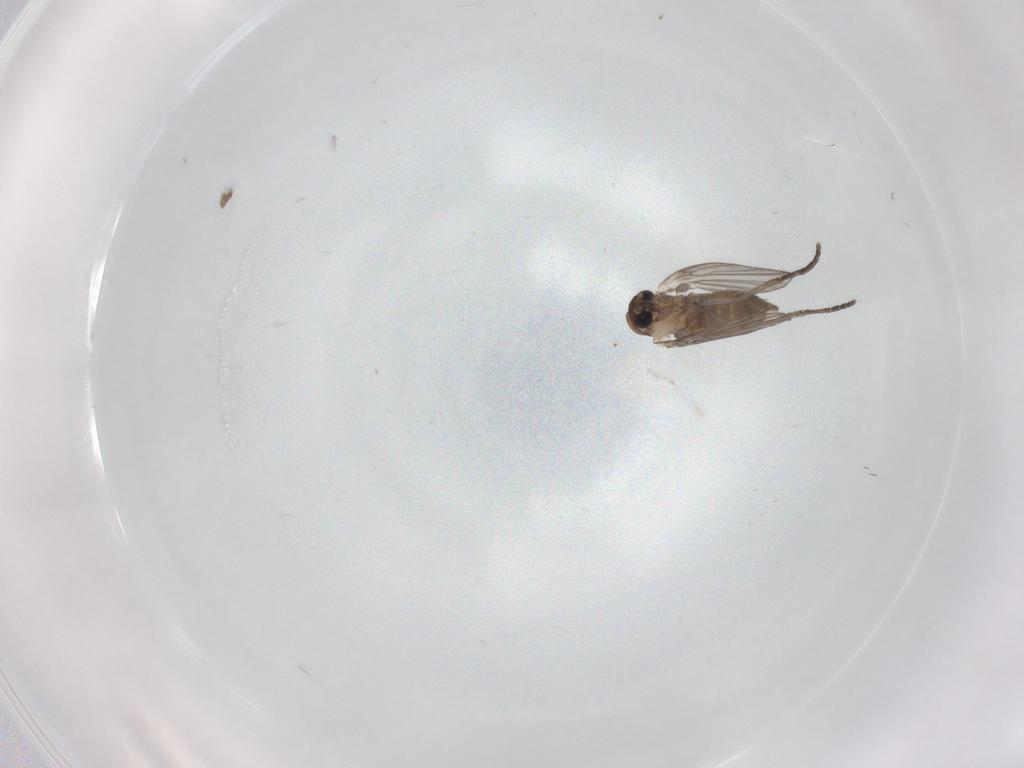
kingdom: Animalia
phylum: Arthropoda
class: Insecta
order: Diptera
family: Psychodidae
